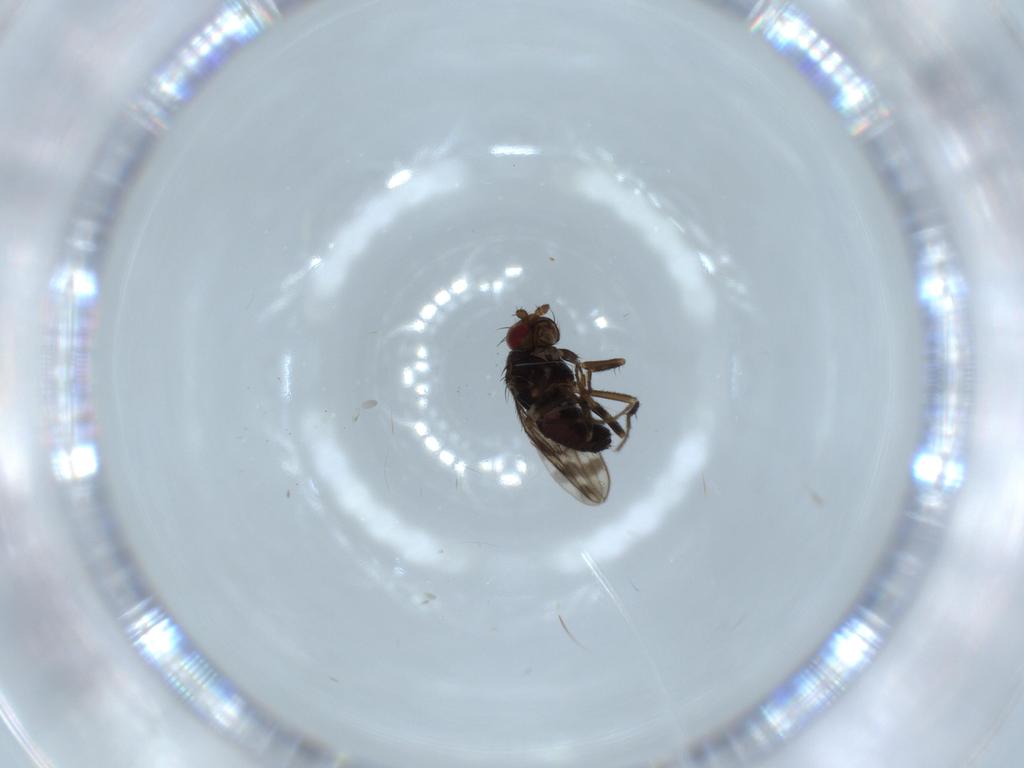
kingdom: Animalia
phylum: Arthropoda
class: Insecta
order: Diptera
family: Sphaeroceridae
